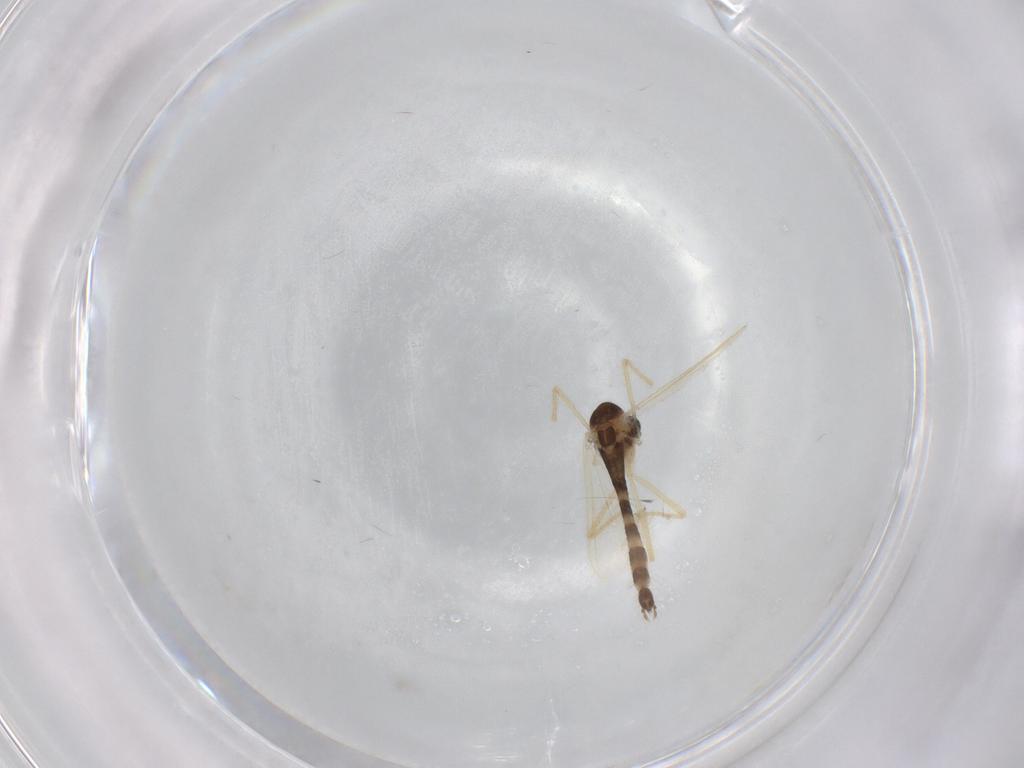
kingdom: Animalia
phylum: Arthropoda
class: Insecta
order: Diptera
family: Chironomidae
